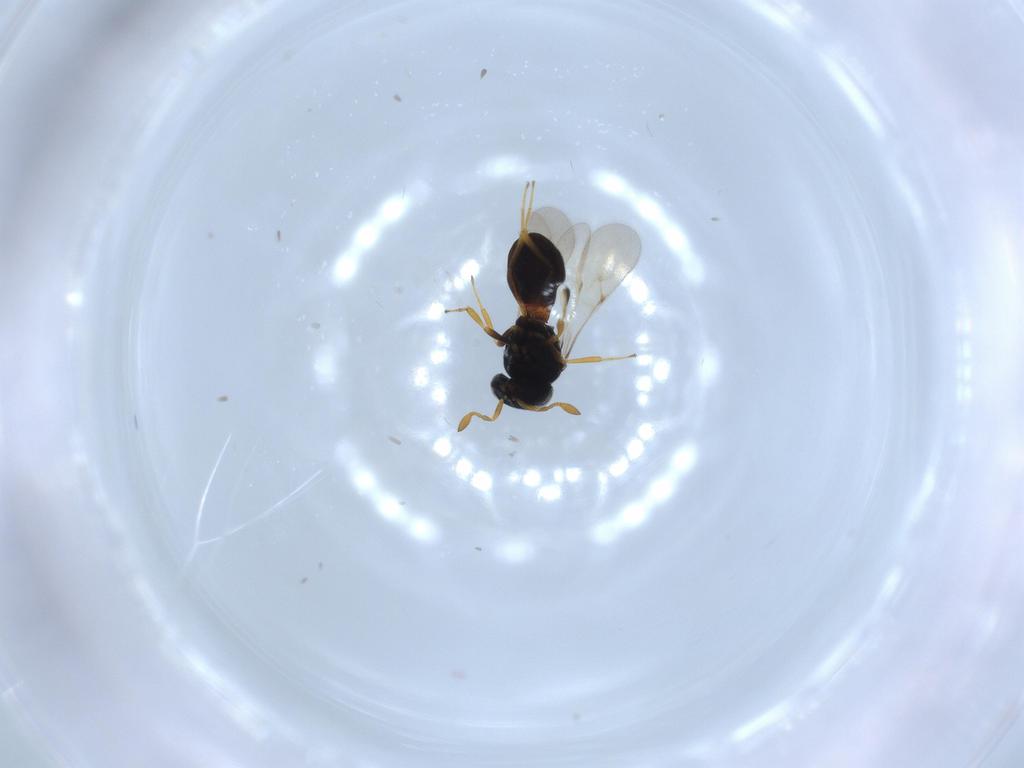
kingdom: Animalia
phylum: Arthropoda
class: Insecta
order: Hymenoptera
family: Scelionidae
